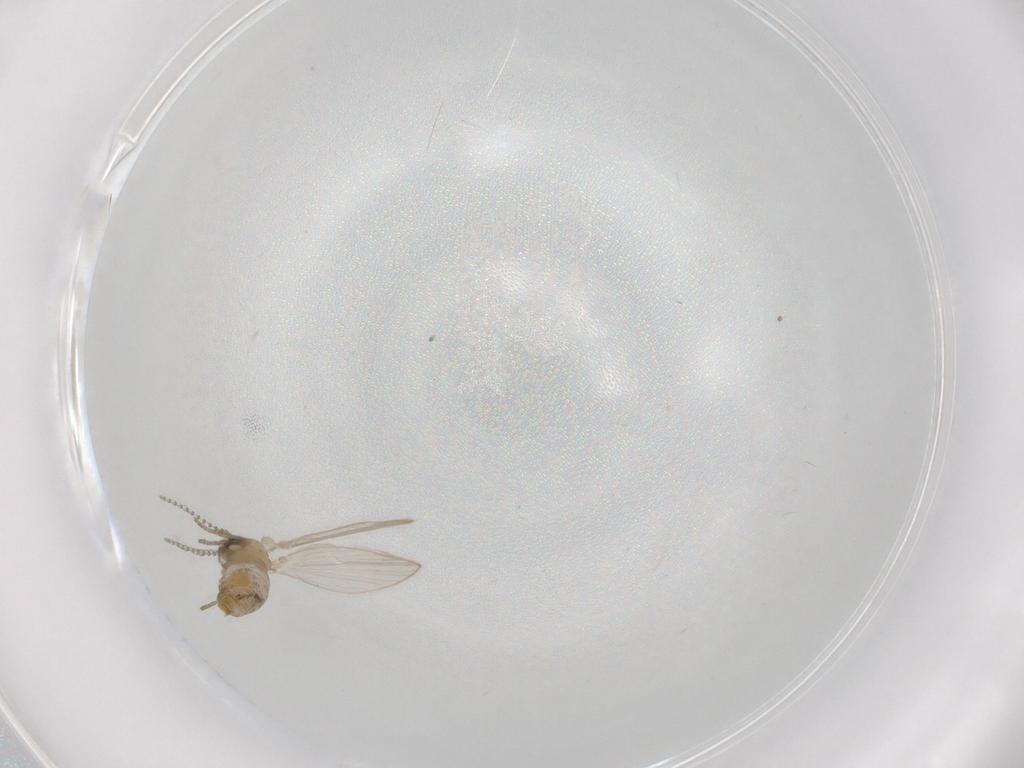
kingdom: Animalia
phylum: Arthropoda
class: Insecta
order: Diptera
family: Psychodidae
